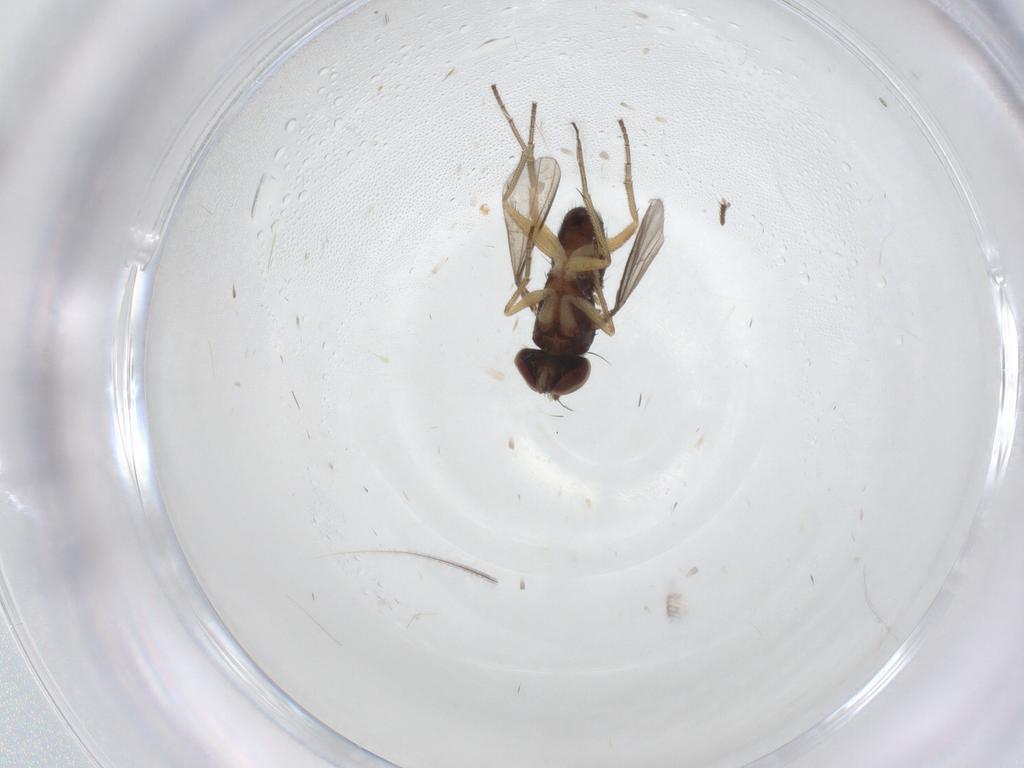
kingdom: Animalia
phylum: Arthropoda
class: Insecta
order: Diptera
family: Dolichopodidae
